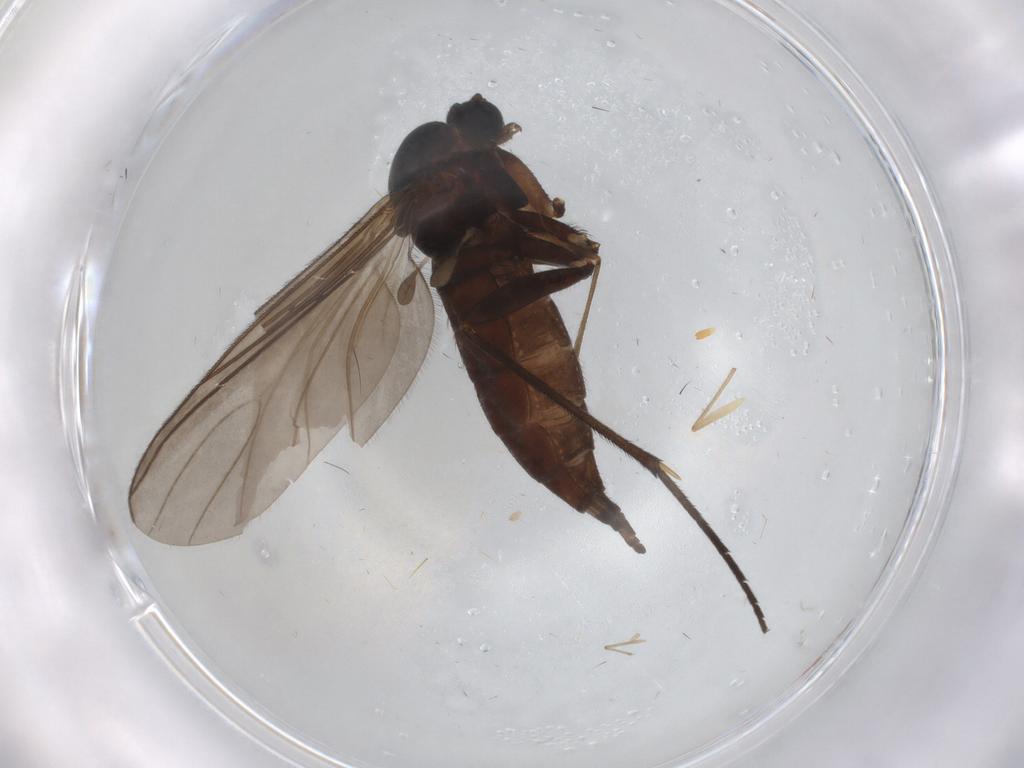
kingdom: Animalia
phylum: Arthropoda
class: Insecta
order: Diptera
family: Chironomidae
